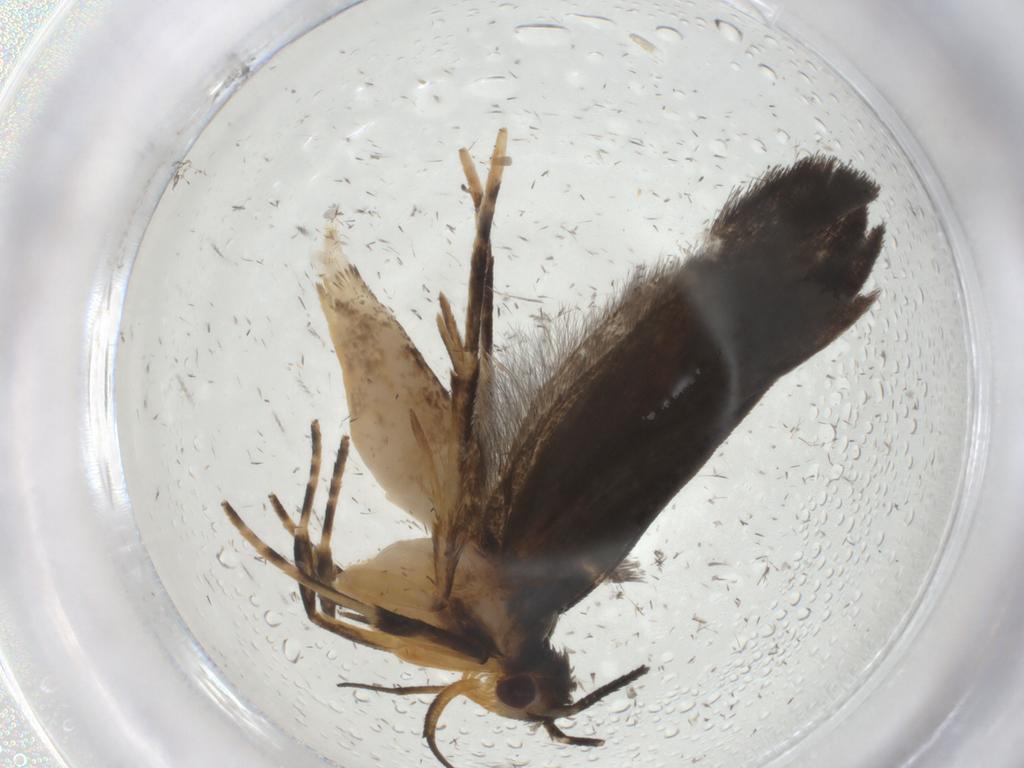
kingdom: Animalia
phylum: Arthropoda
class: Insecta
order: Lepidoptera
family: Gelechiidae
